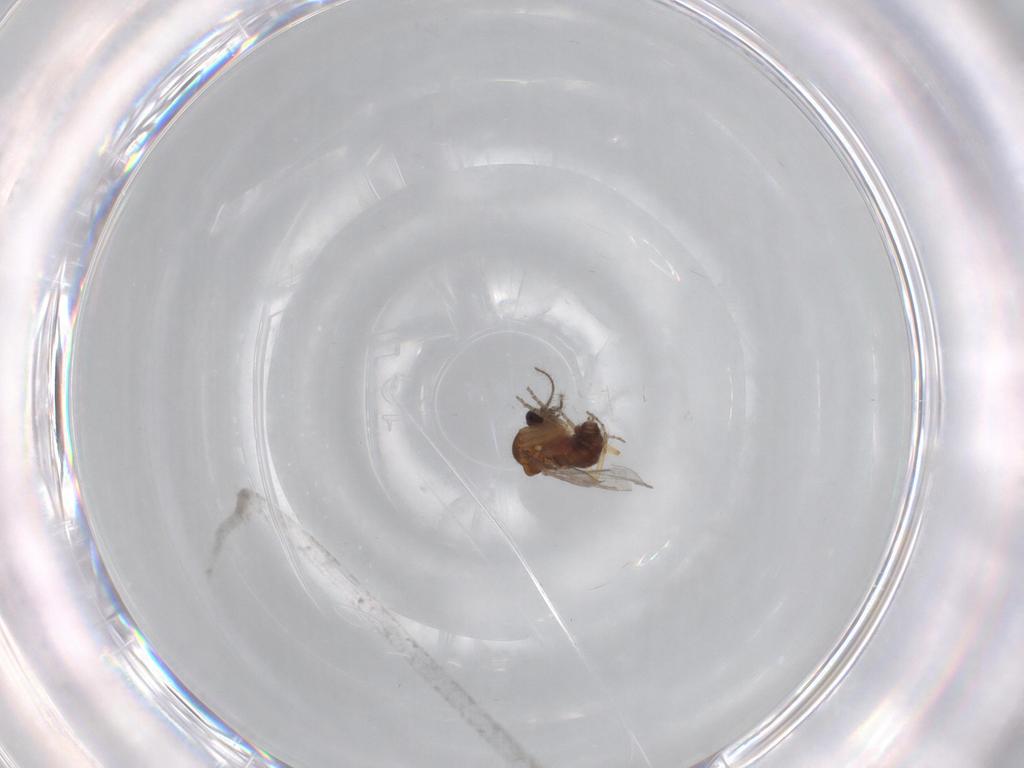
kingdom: Animalia
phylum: Arthropoda
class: Insecta
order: Diptera
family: Ceratopogonidae
